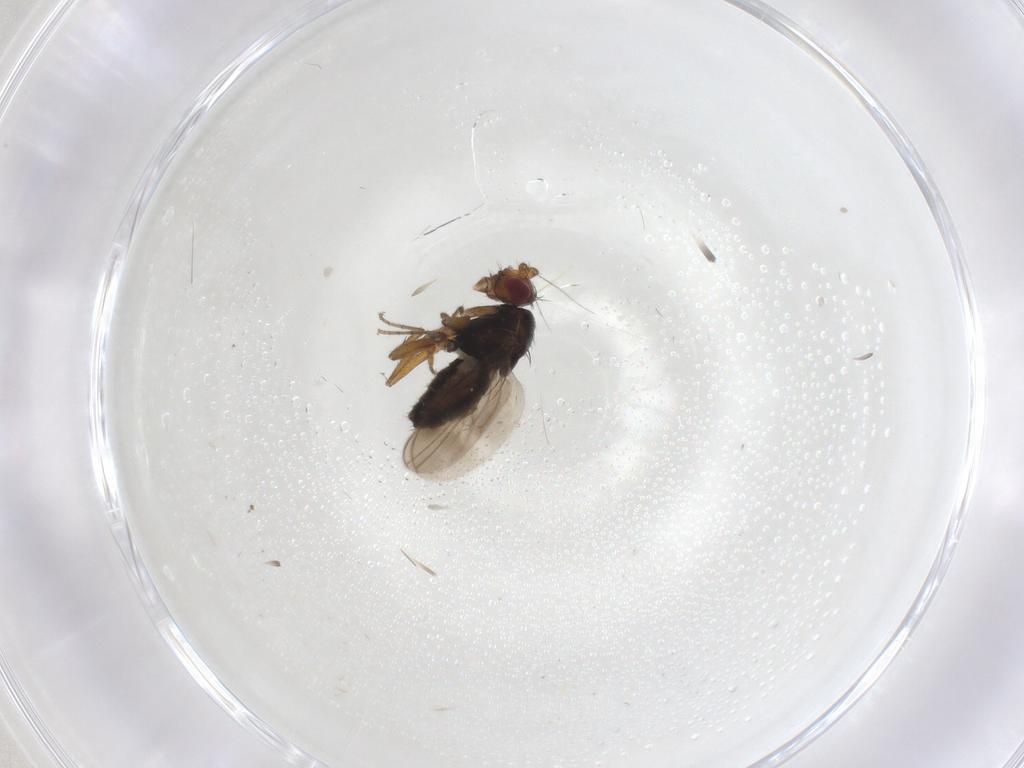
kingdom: Animalia
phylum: Arthropoda
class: Insecta
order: Diptera
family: Sphaeroceridae
